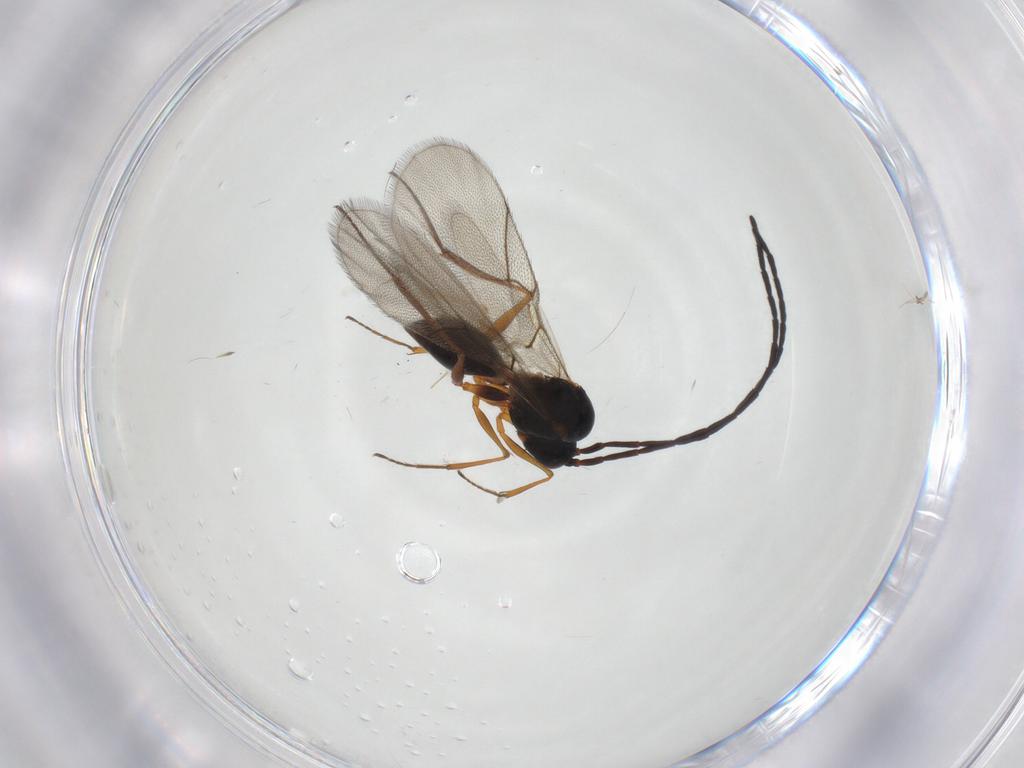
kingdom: Animalia
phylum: Arthropoda
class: Insecta
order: Hymenoptera
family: Figitidae
